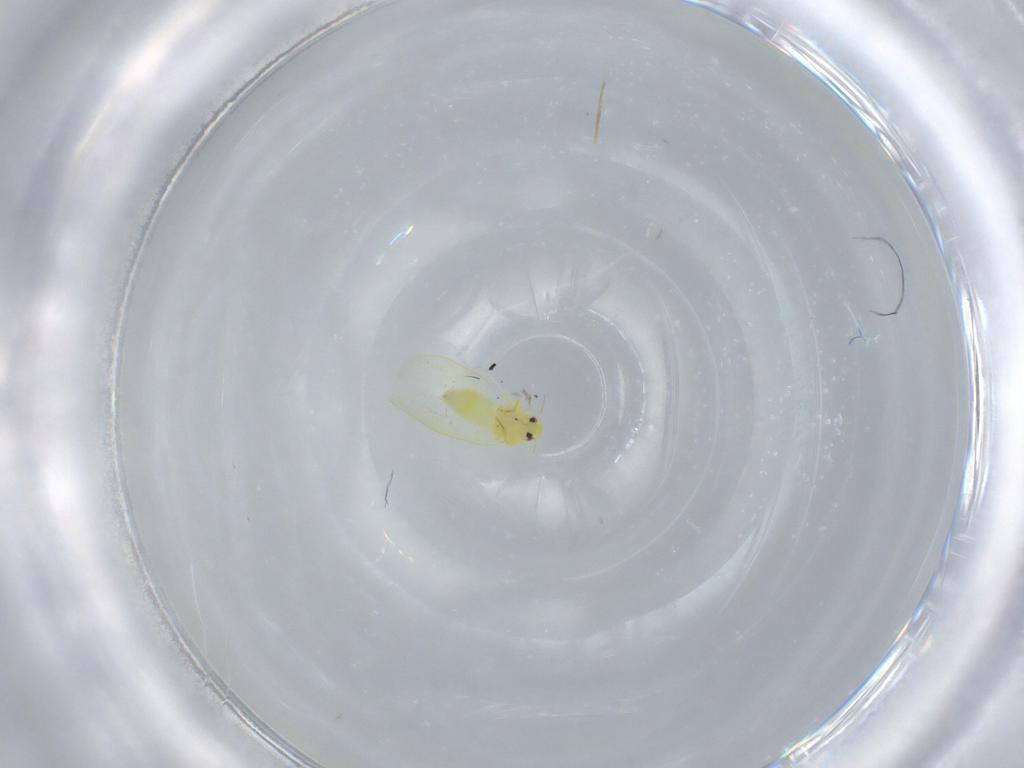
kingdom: Animalia
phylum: Arthropoda
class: Insecta
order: Hemiptera
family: Aleyrodidae
